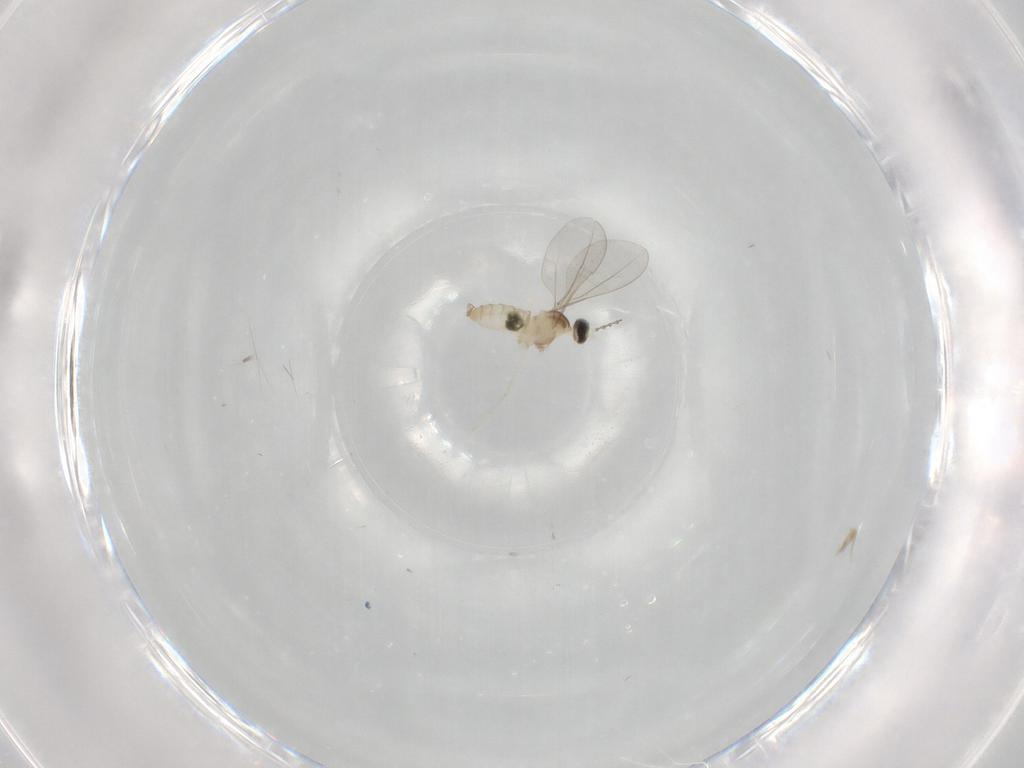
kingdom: Animalia
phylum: Arthropoda
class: Insecta
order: Diptera
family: Cecidomyiidae
